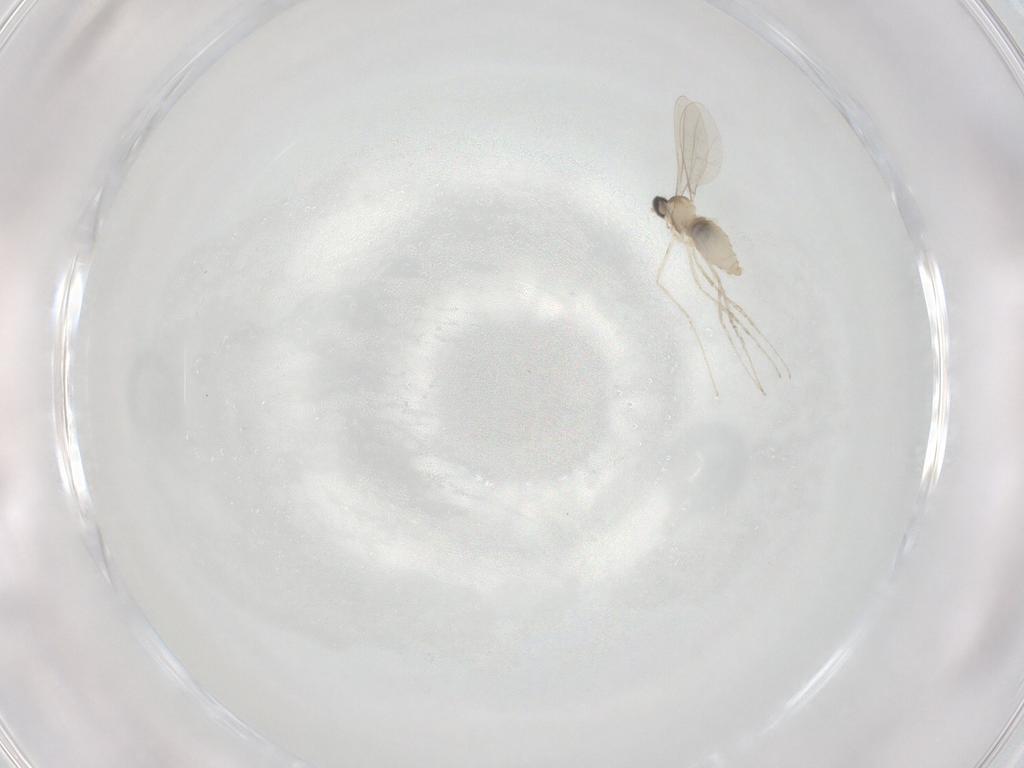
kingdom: Animalia
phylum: Arthropoda
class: Insecta
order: Diptera
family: Cecidomyiidae
